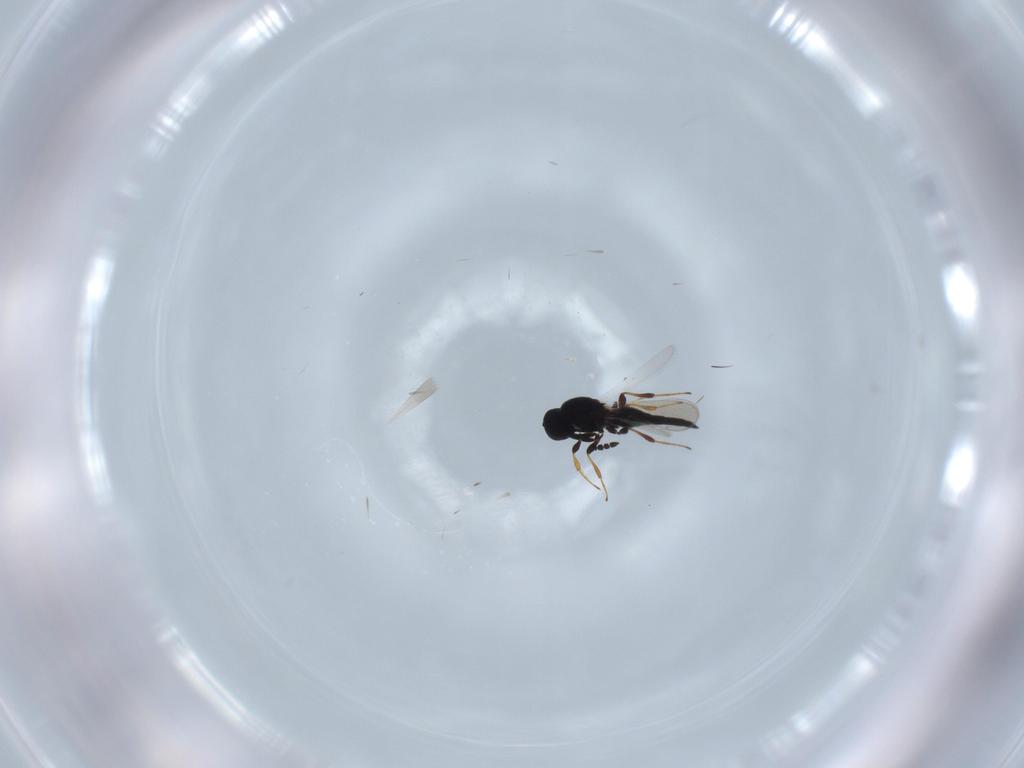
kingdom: Animalia
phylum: Arthropoda
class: Insecta
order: Hymenoptera
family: Platygastridae
